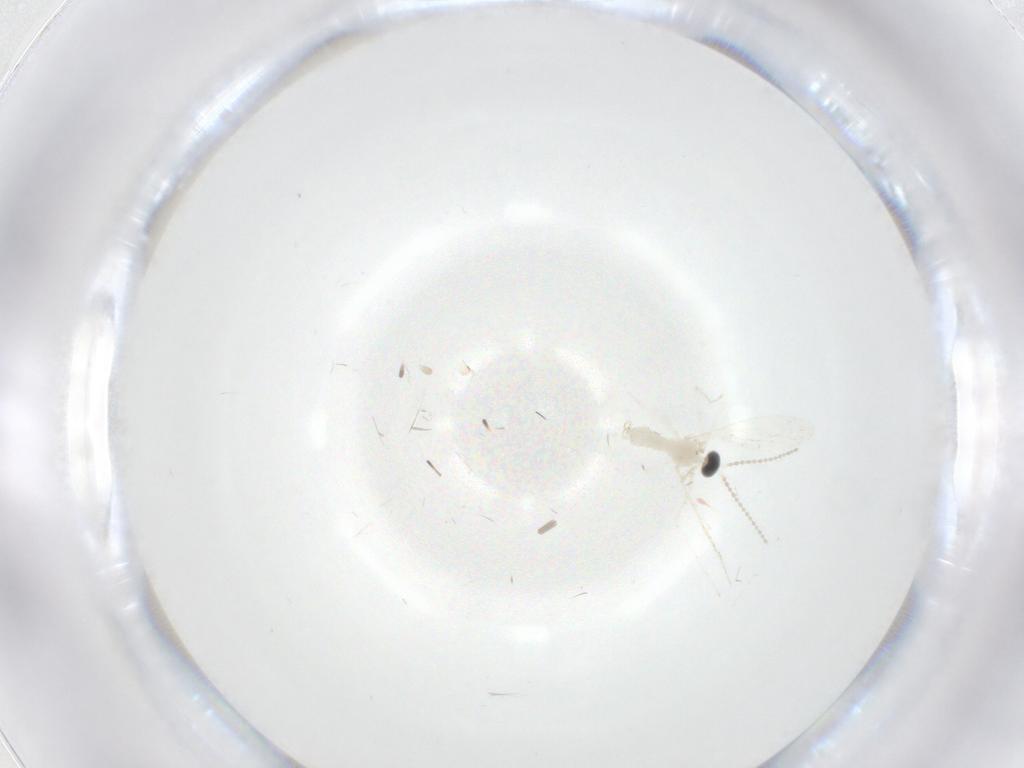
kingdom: Animalia
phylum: Arthropoda
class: Insecta
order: Diptera
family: Cecidomyiidae
